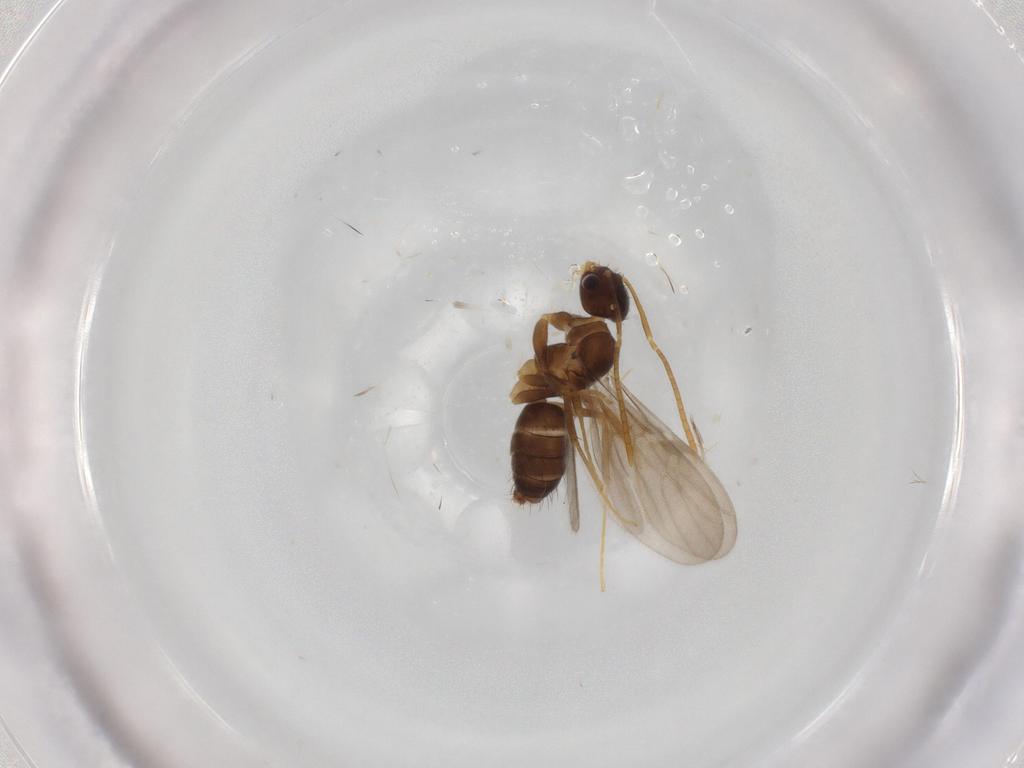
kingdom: Animalia
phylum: Arthropoda
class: Insecta
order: Hymenoptera
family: Formicidae
